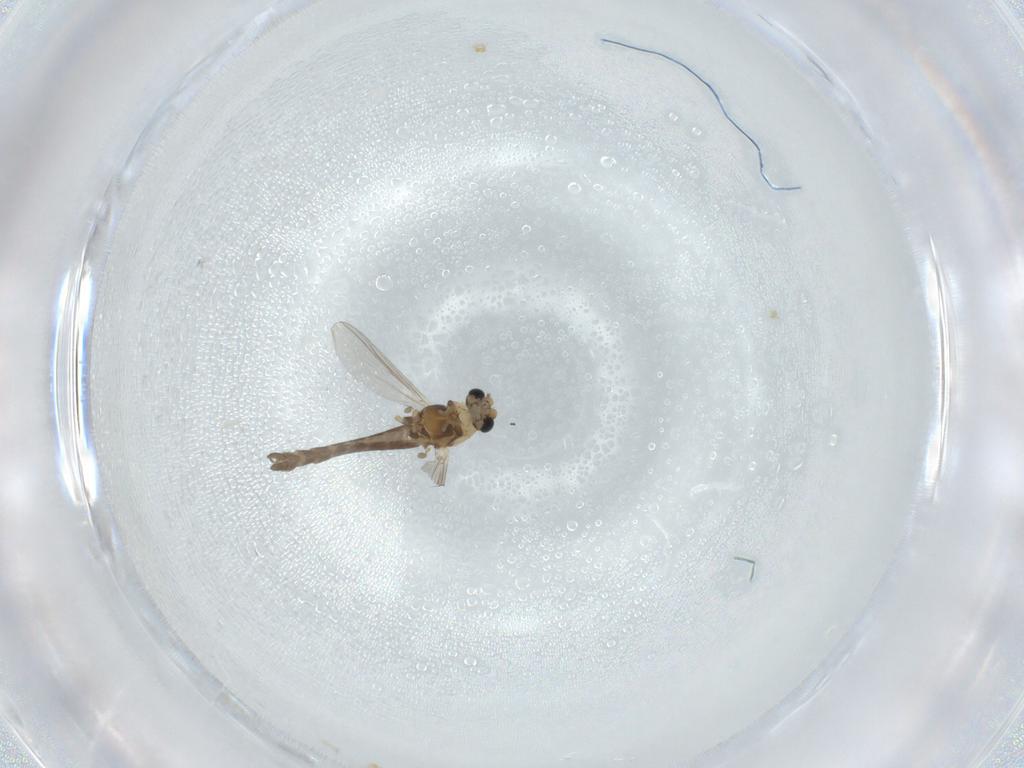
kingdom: Animalia
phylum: Arthropoda
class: Insecta
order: Diptera
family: Chironomidae
